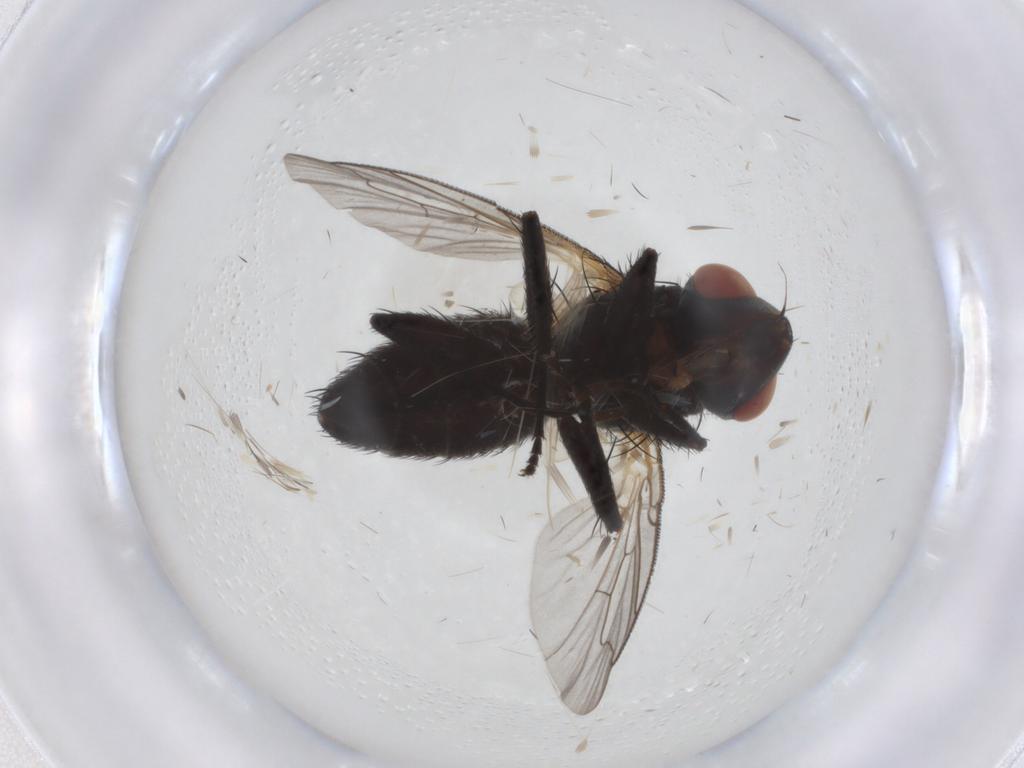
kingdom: Animalia
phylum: Arthropoda
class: Insecta
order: Diptera
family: Sarcophagidae
